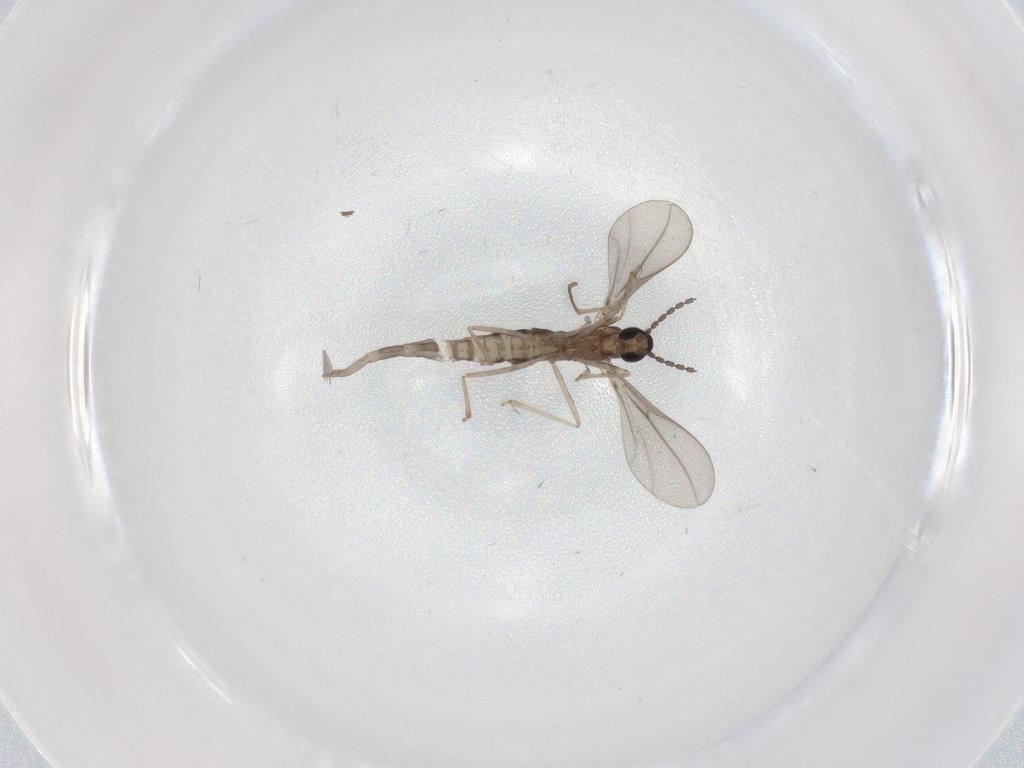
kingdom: Animalia
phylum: Arthropoda
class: Insecta
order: Diptera
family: Cecidomyiidae
